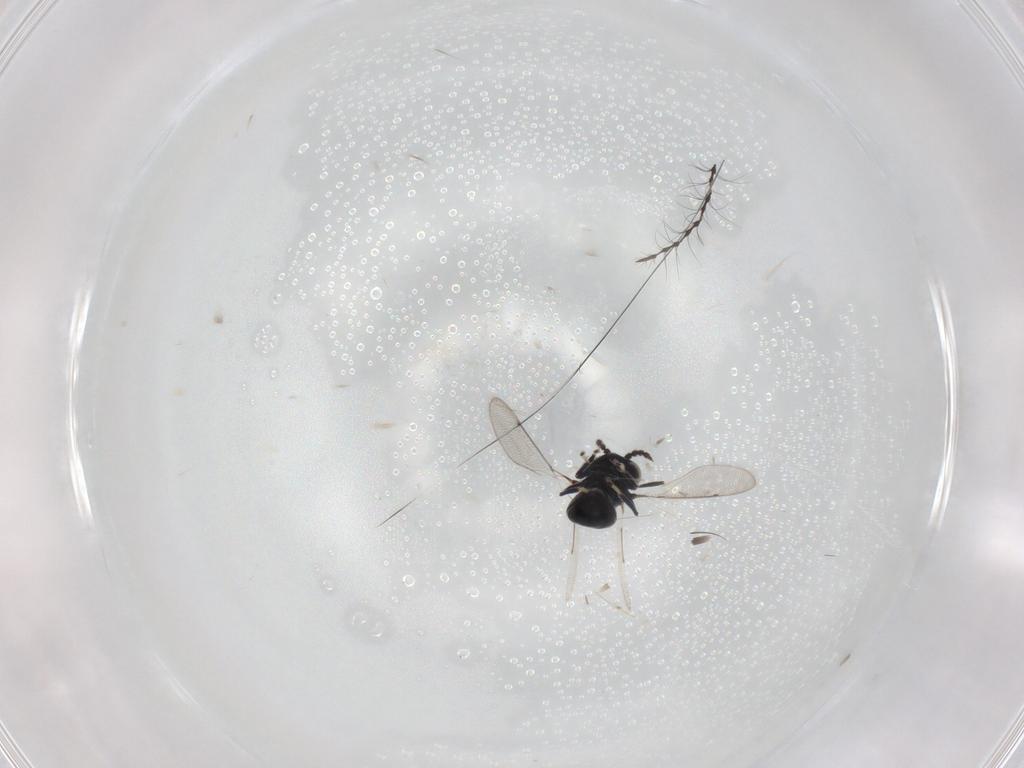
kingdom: Animalia
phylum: Arthropoda
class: Insecta
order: Hymenoptera
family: Scelionidae
